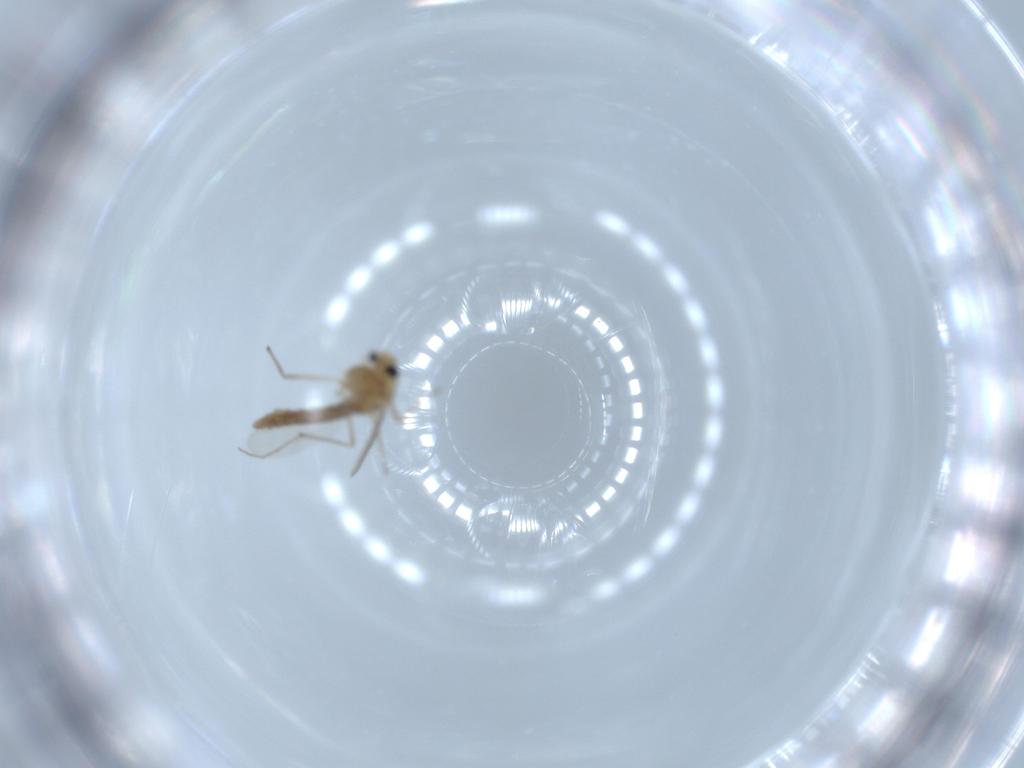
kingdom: Animalia
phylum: Arthropoda
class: Insecta
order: Diptera
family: Chironomidae
